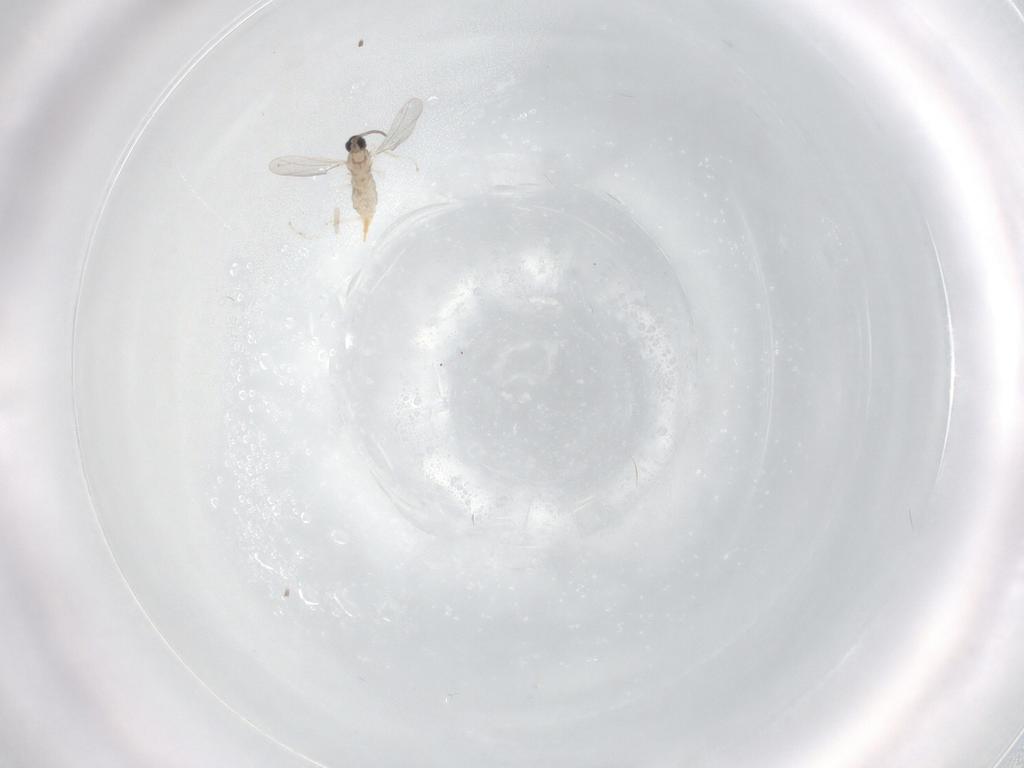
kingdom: Animalia
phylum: Arthropoda
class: Insecta
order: Diptera
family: Cecidomyiidae
